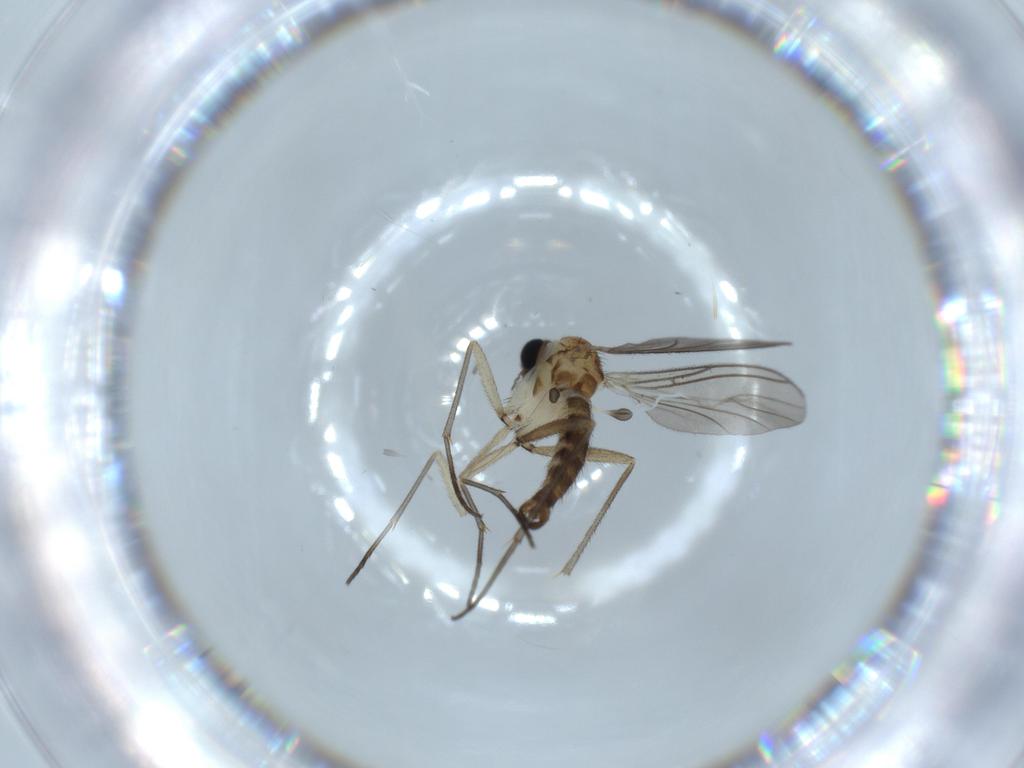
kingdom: Animalia
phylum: Arthropoda
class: Insecta
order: Diptera
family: Sciaridae
